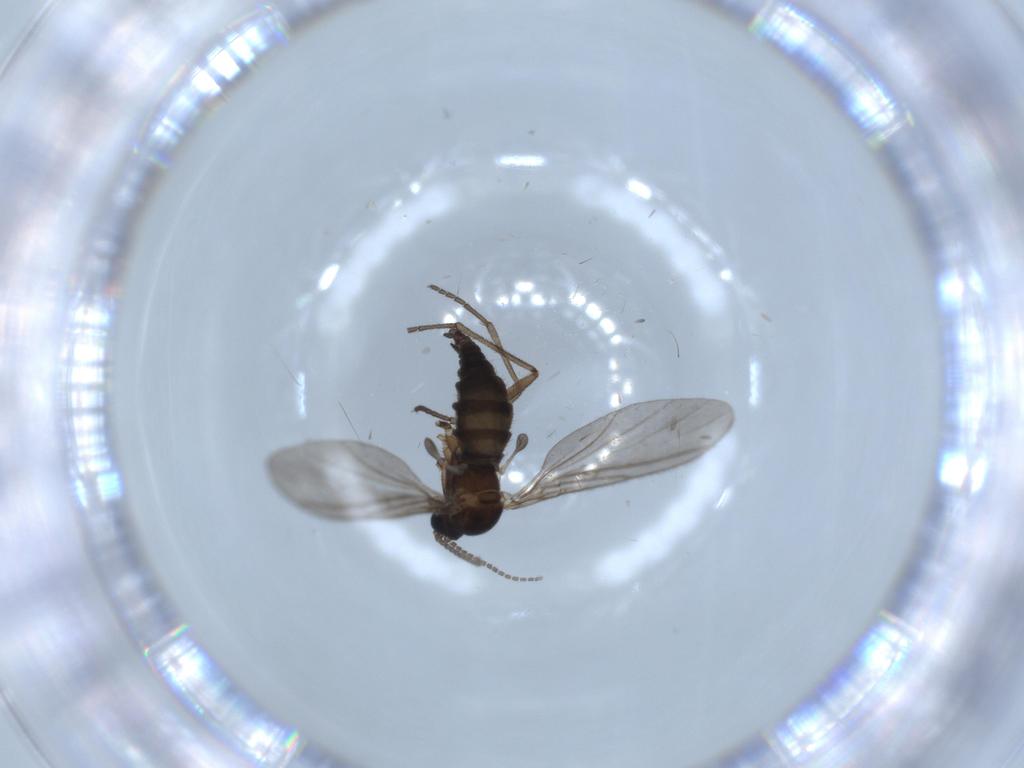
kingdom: Animalia
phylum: Arthropoda
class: Insecta
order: Diptera
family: Sciaridae
